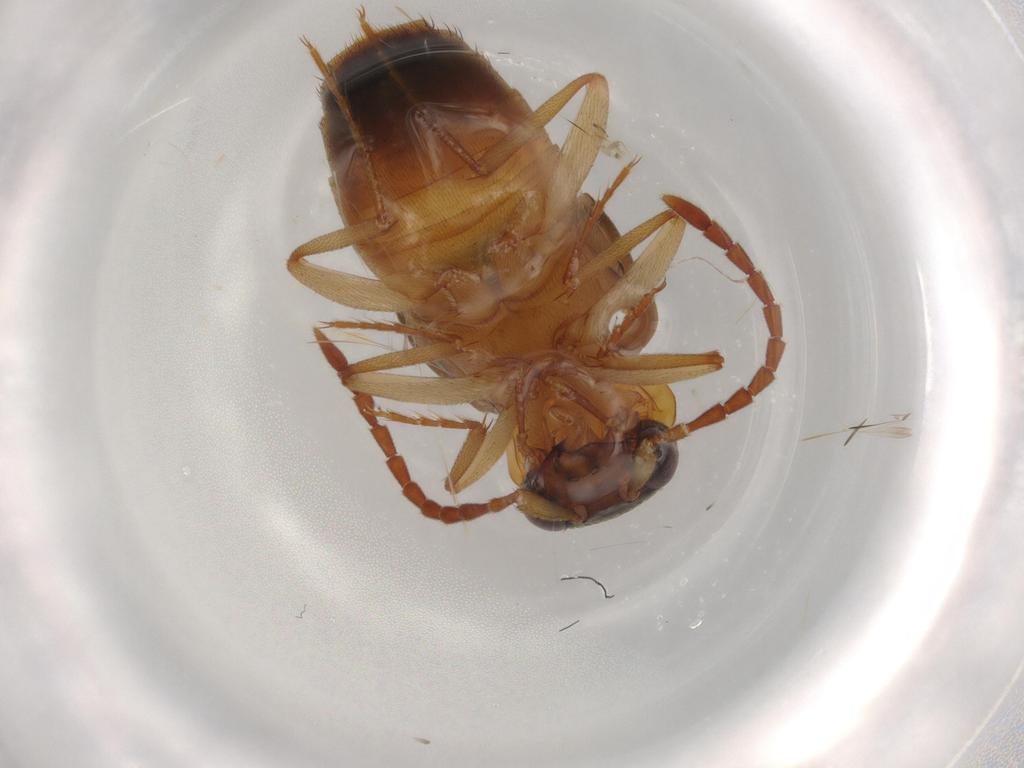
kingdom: Animalia
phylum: Arthropoda
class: Insecta
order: Coleoptera
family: Staphylinidae
